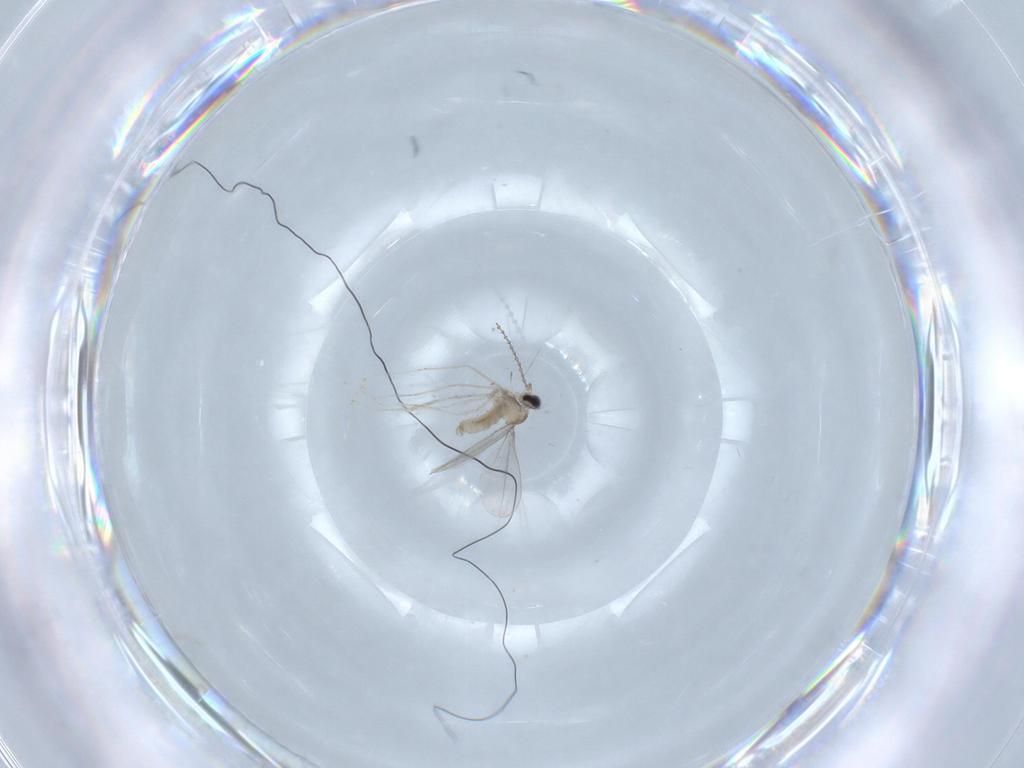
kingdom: Animalia
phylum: Arthropoda
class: Insecta
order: Diptera
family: Cecidomyiidae
